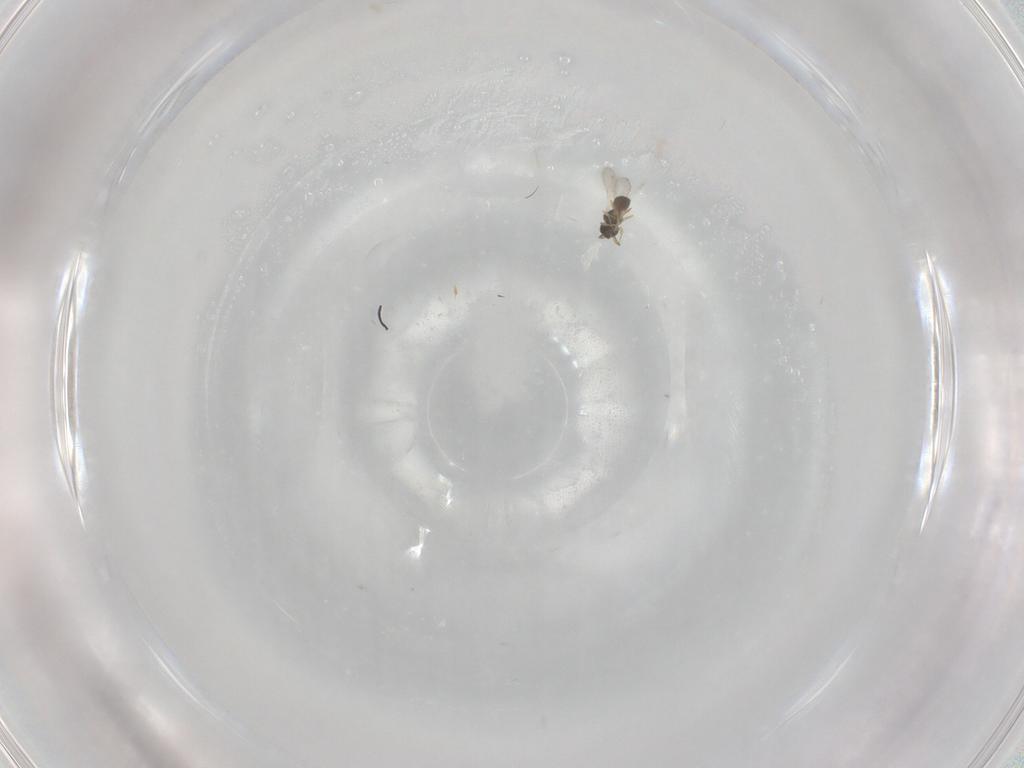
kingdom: Animalia
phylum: Arthropoda
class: Insecta
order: Hymenoptera
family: Scelionidae
